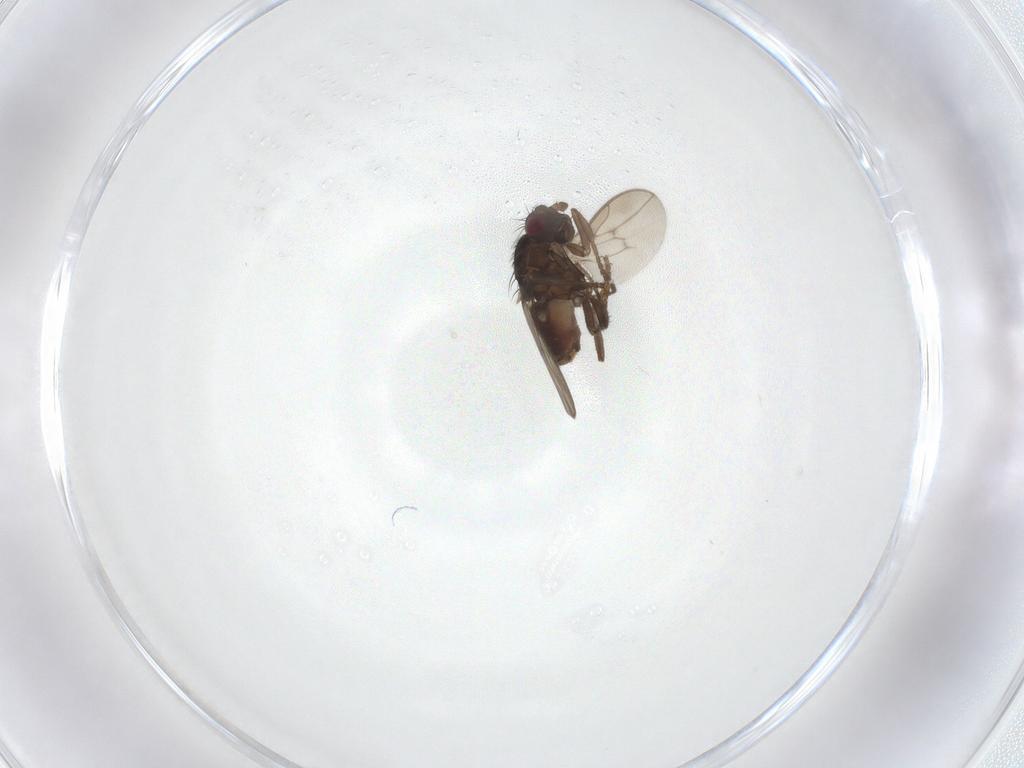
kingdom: Animalia
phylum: Arthropoda
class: Insecta
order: Diptera
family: Sphaeroceridae
